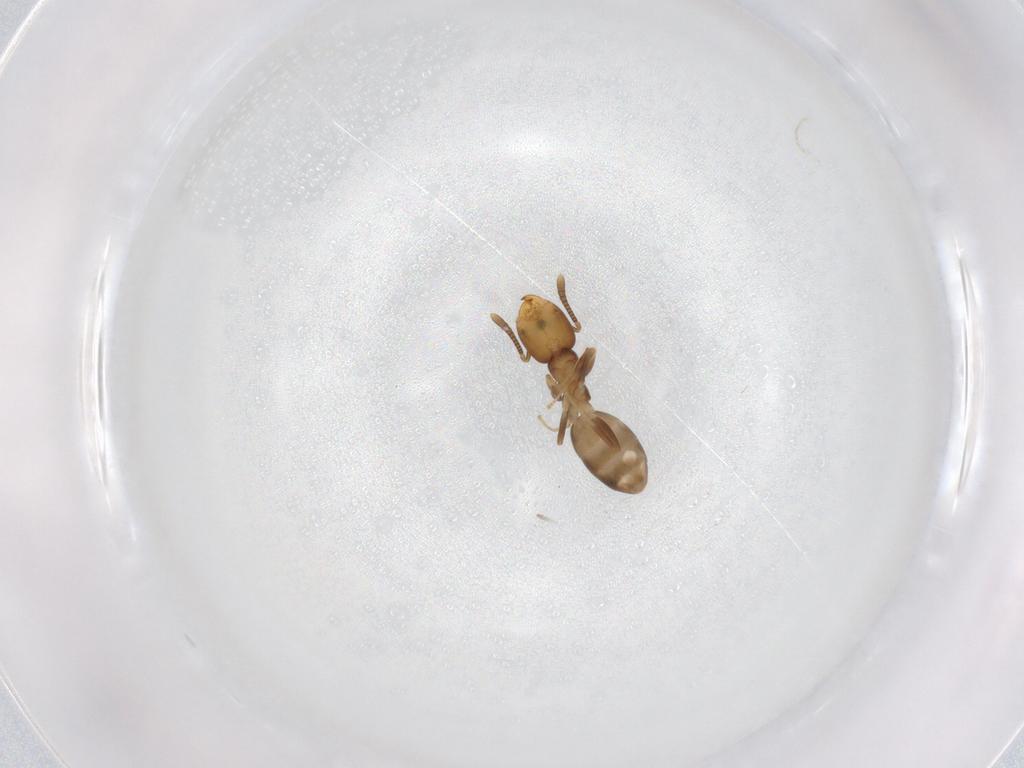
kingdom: Animalia
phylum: Arthropoda
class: Insecta
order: Hymenoptera
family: Formicidae
